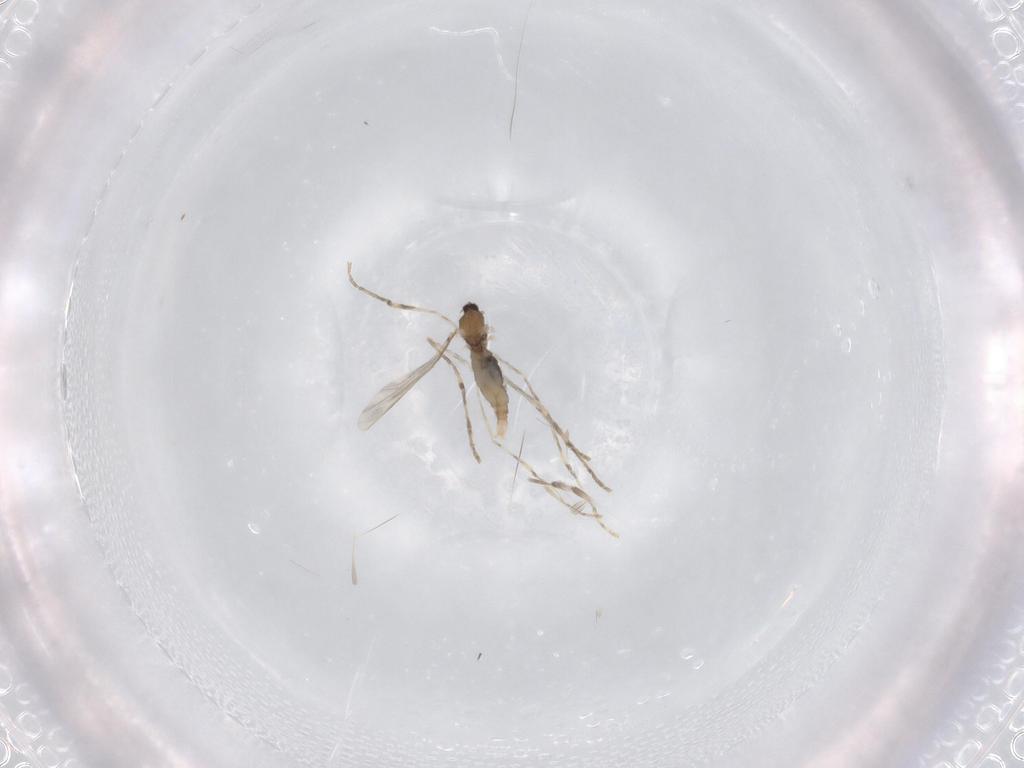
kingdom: Animalia
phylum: Arthropoda
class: Insecta
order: Diptera
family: Cecidomyiidae
